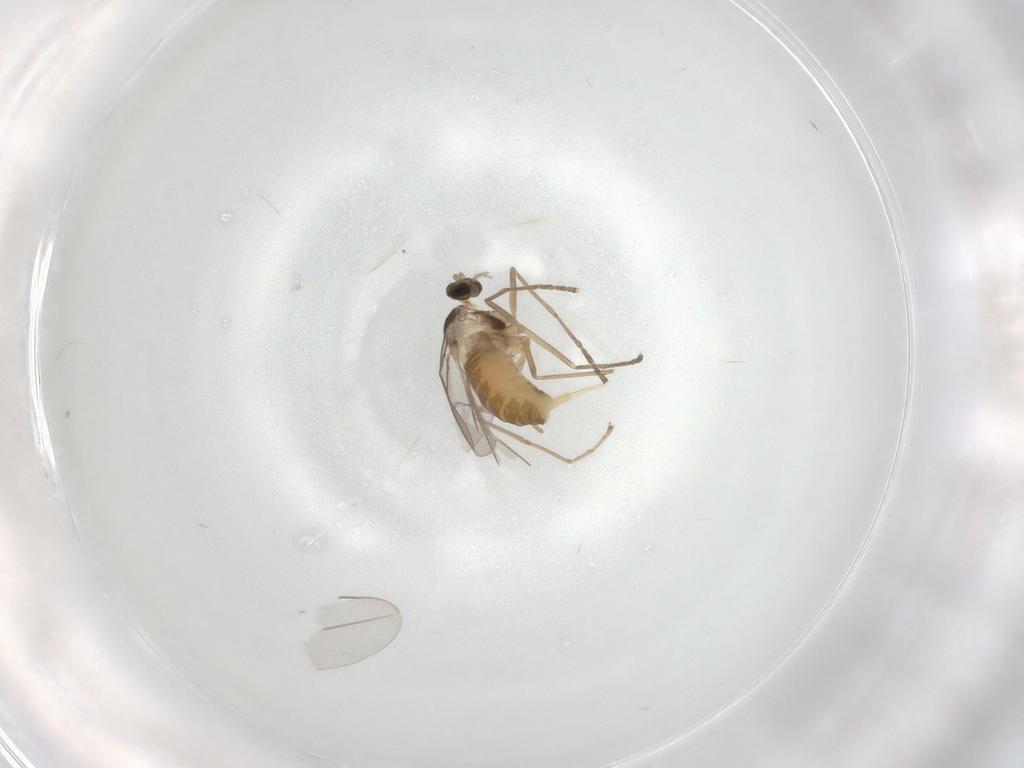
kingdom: Animalia
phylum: Arthropoda
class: Insecta
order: Diptera
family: Cecidomyiidae
